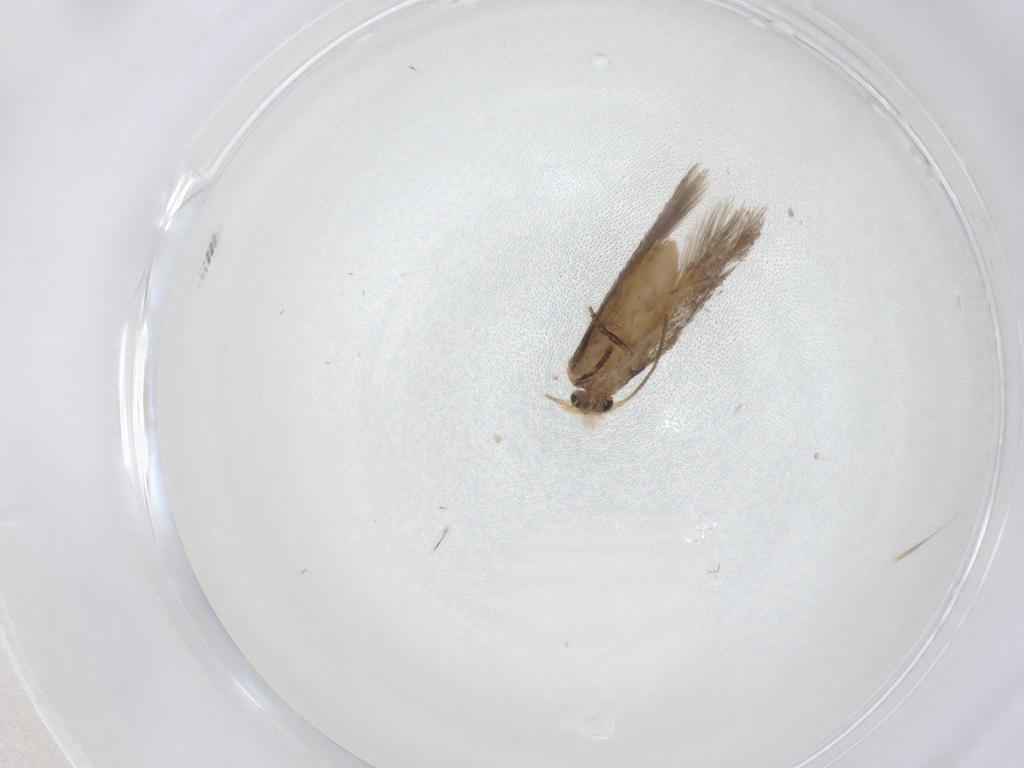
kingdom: Animalia
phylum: Arthropoda
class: Insecta
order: Lepidoptera
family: Nepticulidae
